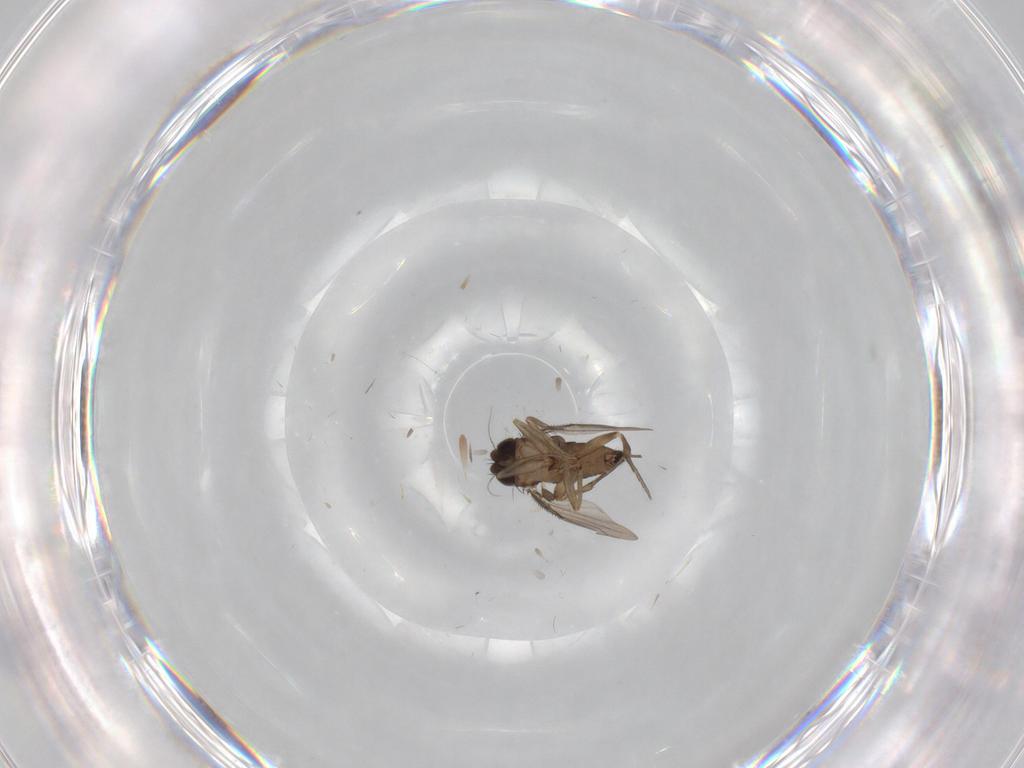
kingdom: Animalia
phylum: Arthropoda
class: Insecta
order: Diptera
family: Phoridae
